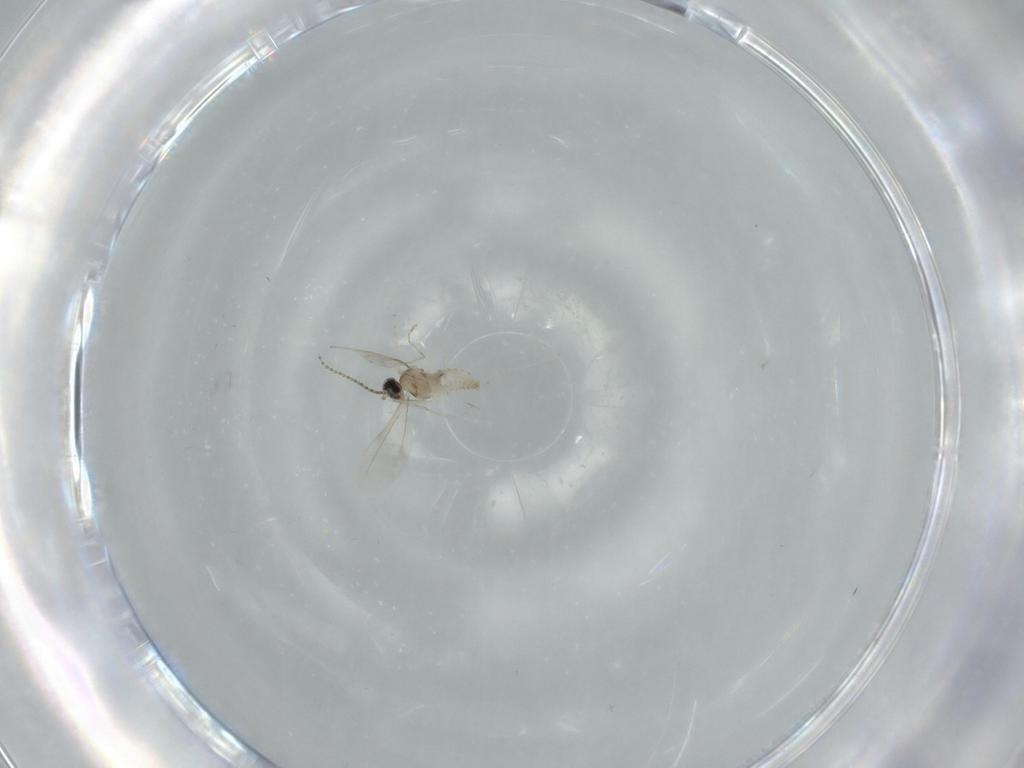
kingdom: Animalia
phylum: Arthropoda
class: Insecta
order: Diptera
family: Cecidomyiidae
